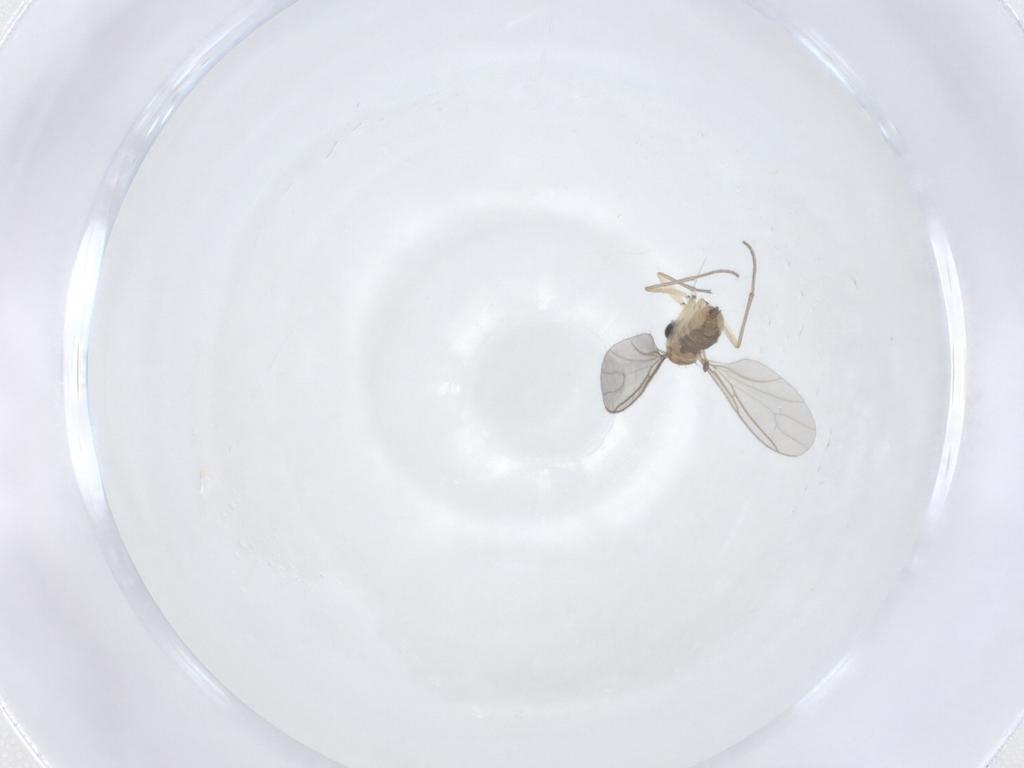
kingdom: Animalia
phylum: Arthropoda
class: Insecta
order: Diptera
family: Sciaridae
